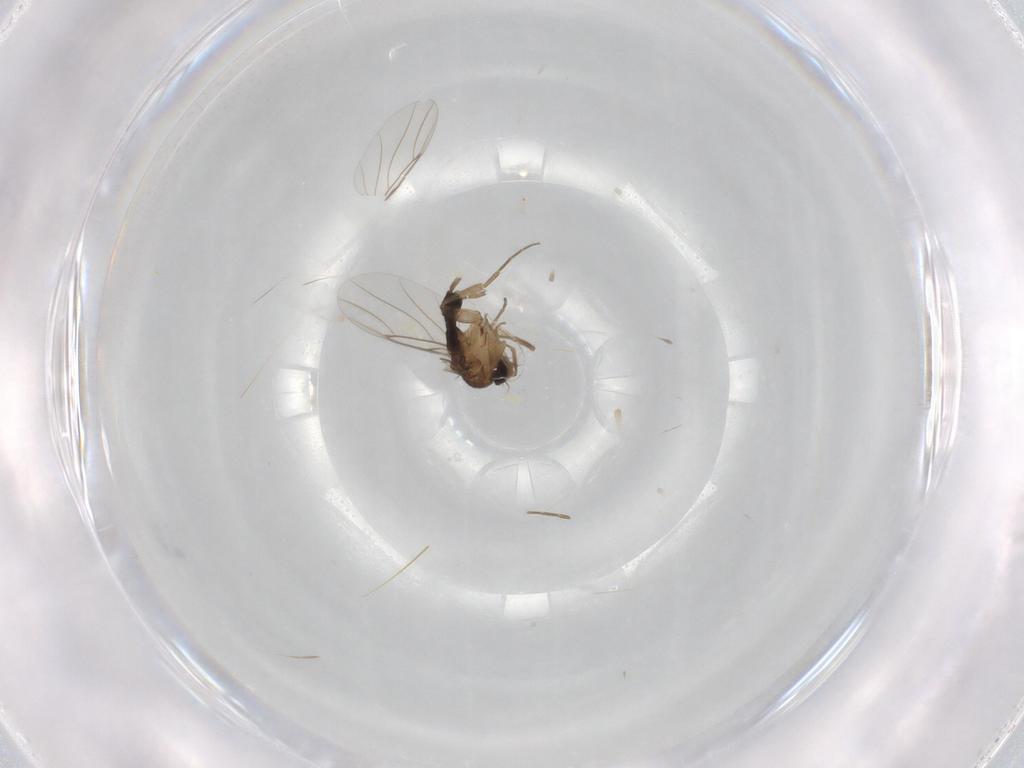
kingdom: Animalia
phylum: Arthropoda
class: Insecta
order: Diptera
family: Phoridae
